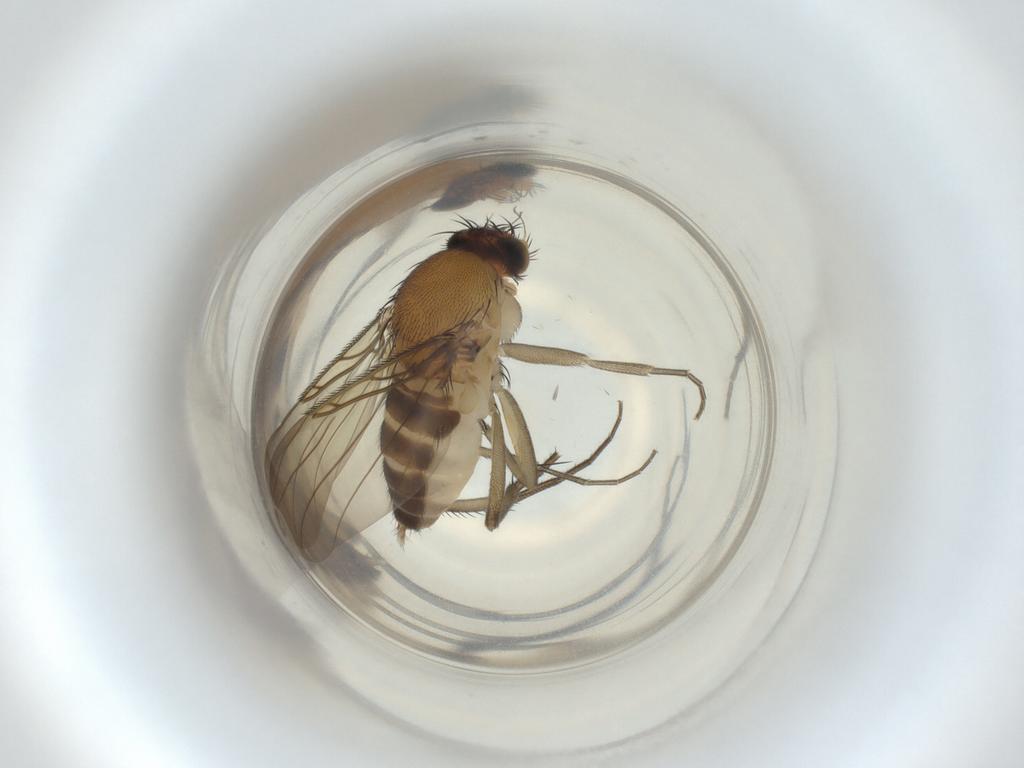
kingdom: Animalia
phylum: Arthropoda
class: Insecta
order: Diptera
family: Phoridae
